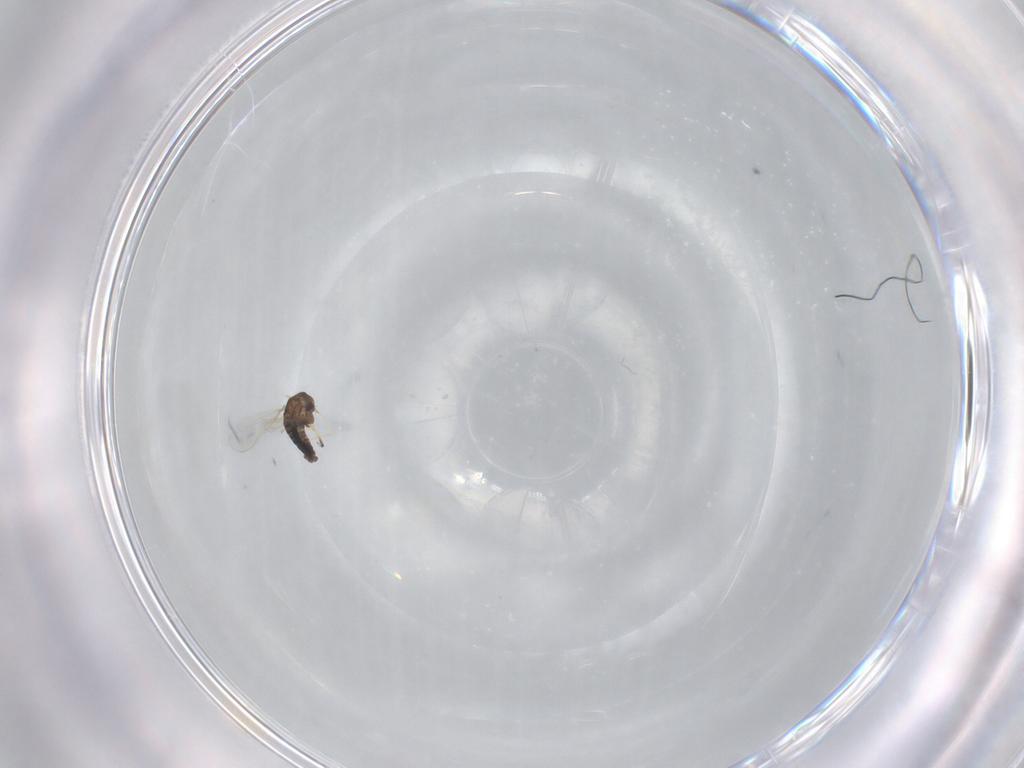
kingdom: Animalia
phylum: Arthropoda
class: Insecta
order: Diptera
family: Chironomidae
